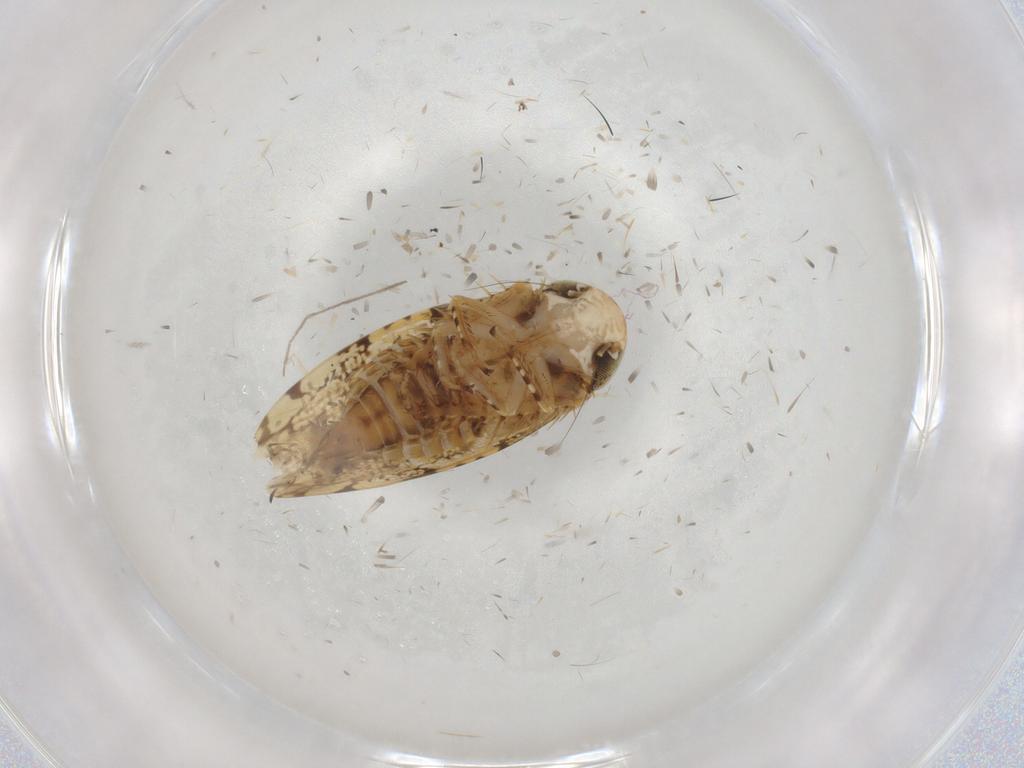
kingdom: Animalia
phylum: Arthropoda
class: Insecta
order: Hemiptera
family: Cicadellidae
